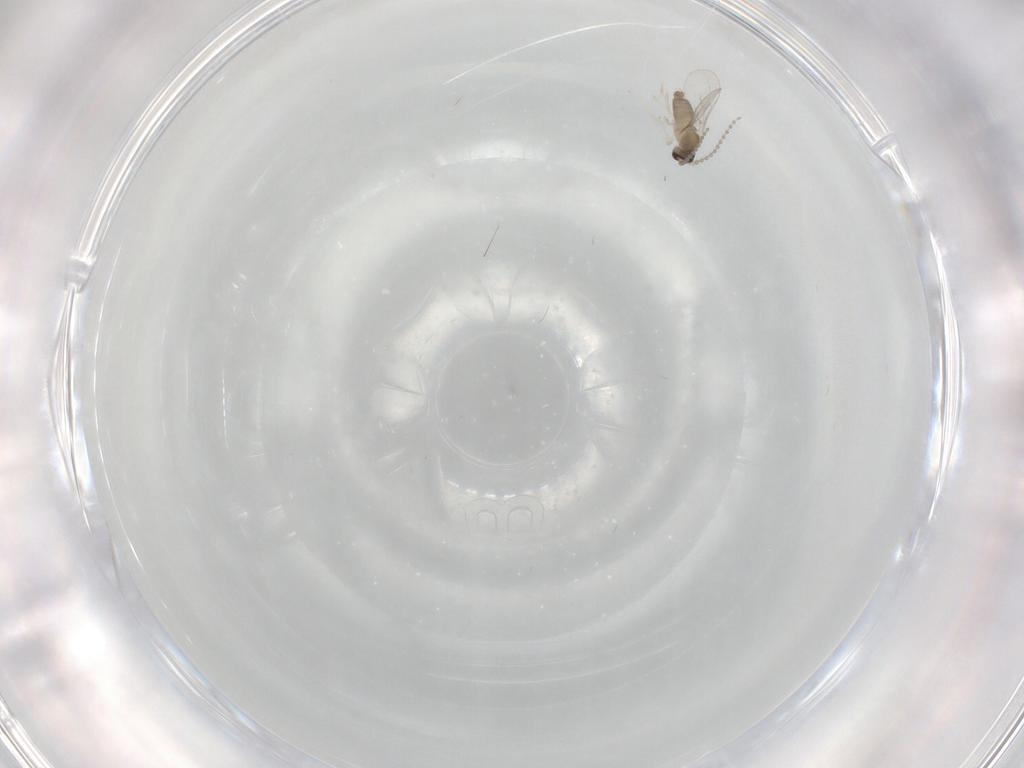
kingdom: Animalia
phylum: Arthropoda
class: Insecta
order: Diptera
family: Cecidomyiidae
